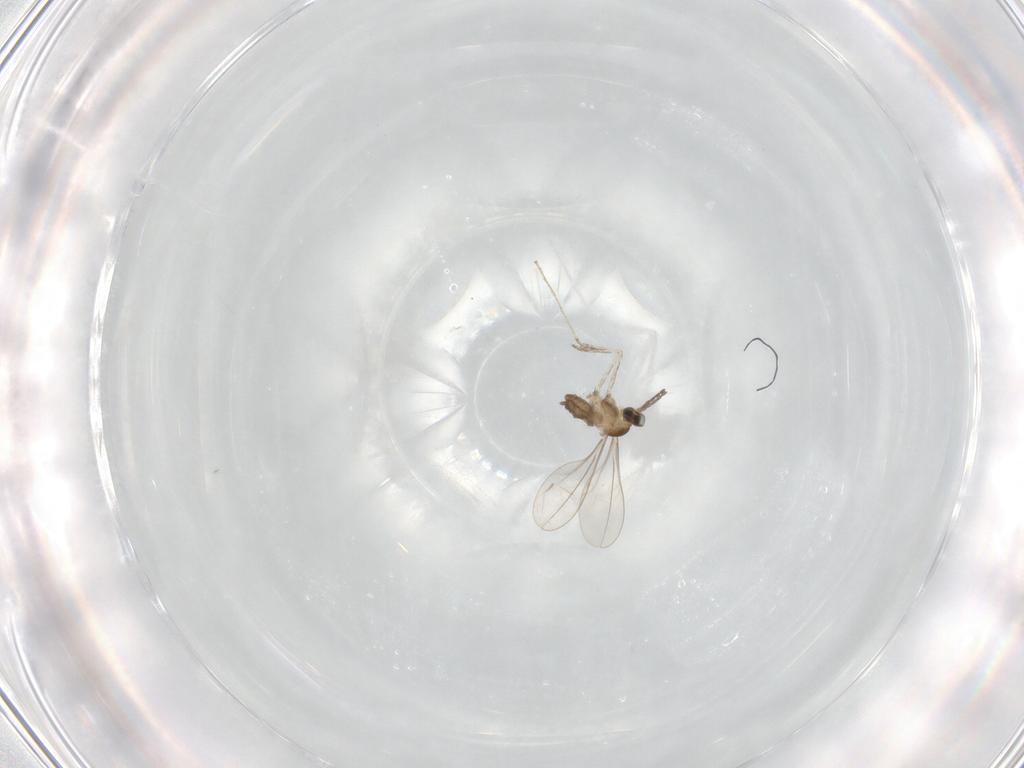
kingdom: Animalia
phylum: Arthropoda
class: Insecta
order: Diptera
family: Cecidomyiidae
